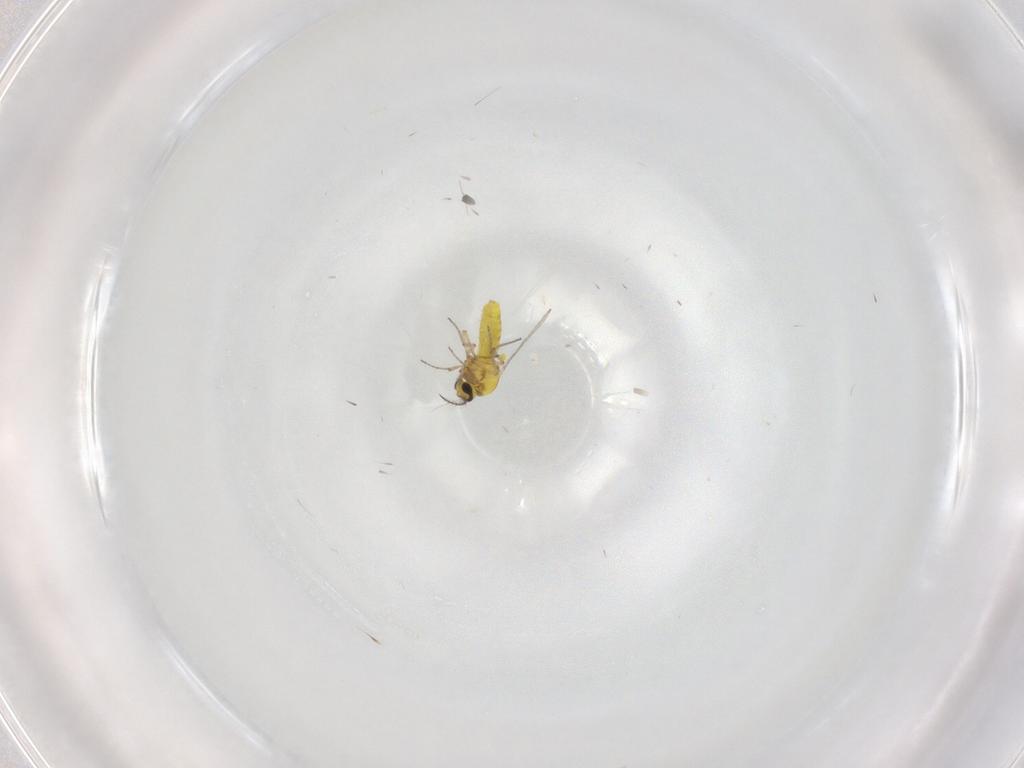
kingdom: Animalia
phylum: Arthropoda
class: Insecta
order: Diptera
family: Ceratopogonidae
